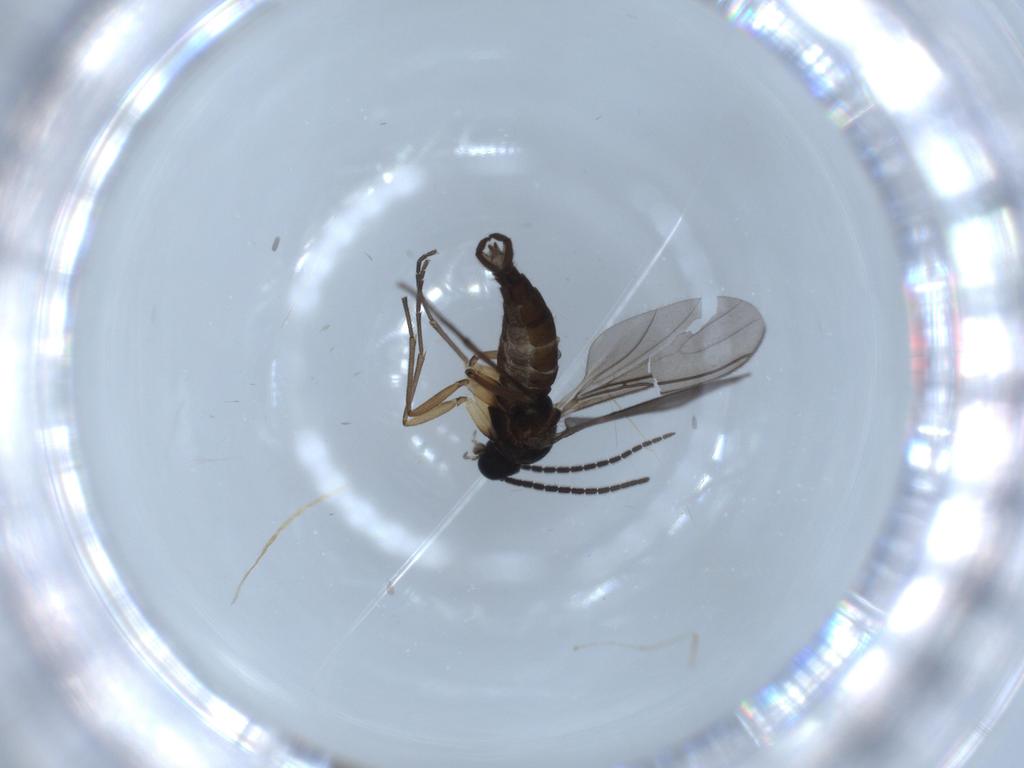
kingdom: Animalia
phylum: Arthropoda
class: Insecta
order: Diptera
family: Sciaridae
